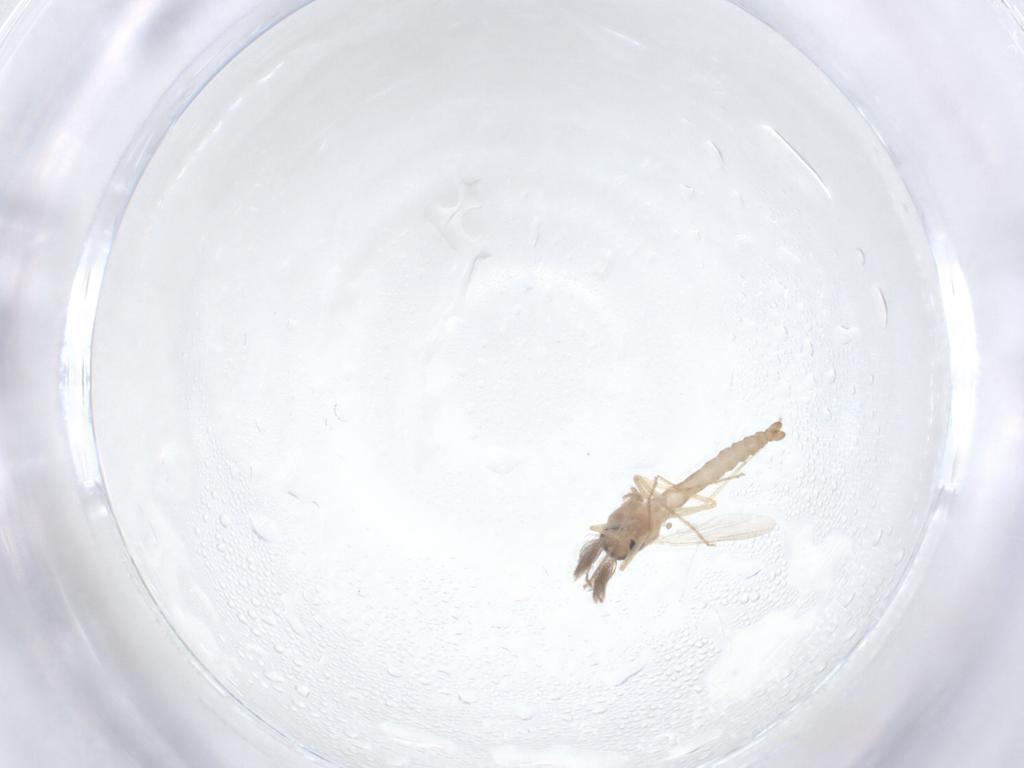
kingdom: Animalia
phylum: Arthropoda
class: Insecta
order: Diptera
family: Ceratopogonidae
